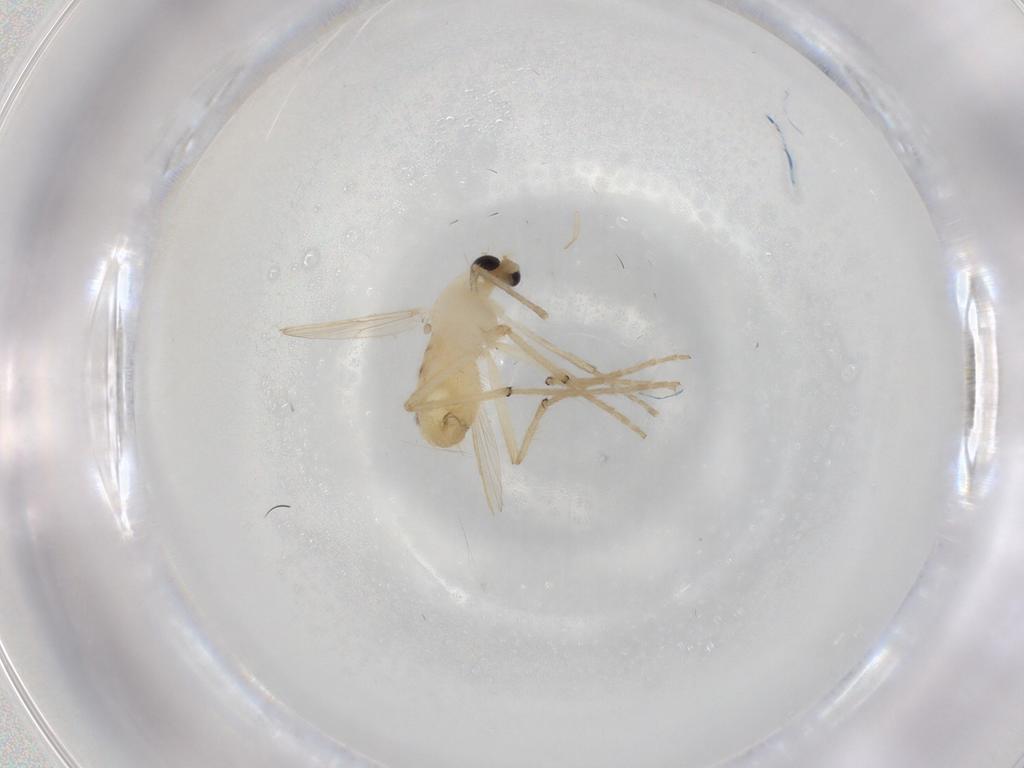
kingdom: Animalia
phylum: Arthropoda
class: Insecta
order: Diptera
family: Chironomidae
